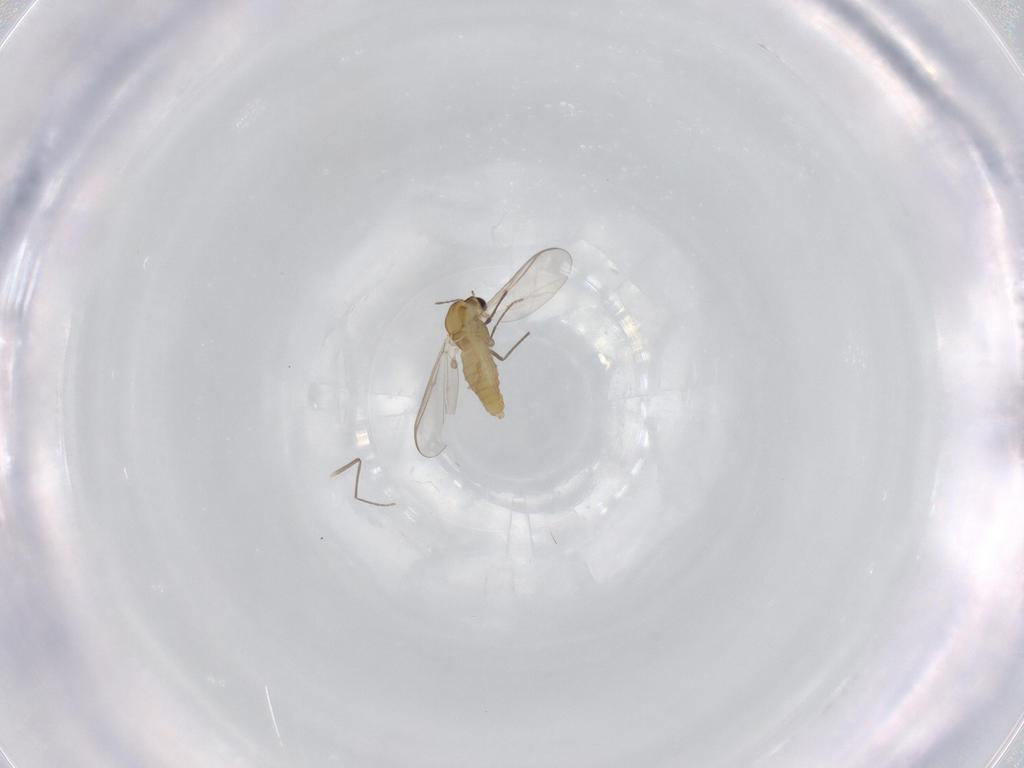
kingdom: Animalia
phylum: Arthropoda
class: Insecta
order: Diptera
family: Chironomidae
